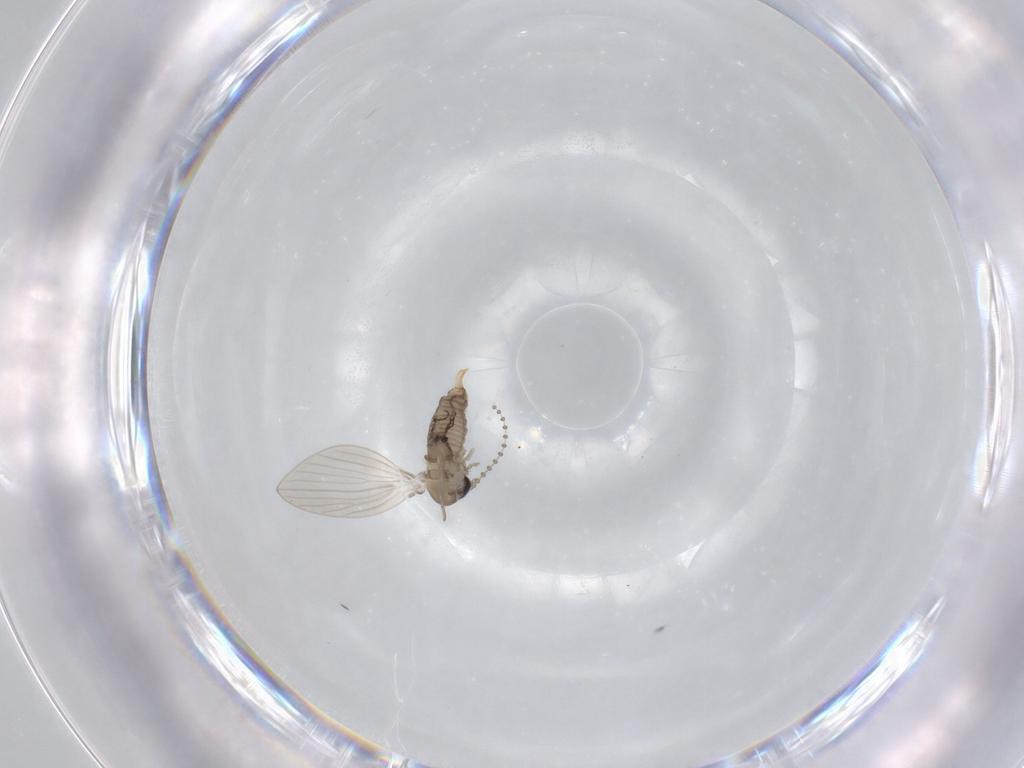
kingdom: Animalia
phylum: Arthropoda
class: Insecta
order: Diptera
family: Psychodidae
